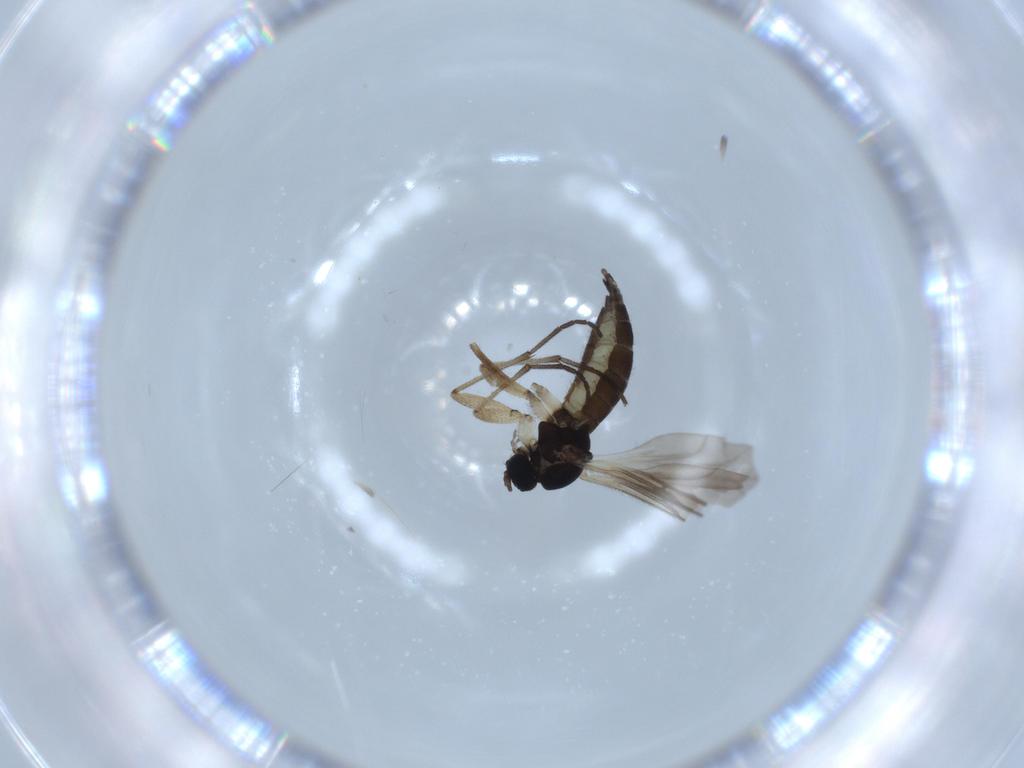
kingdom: Animalia
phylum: Arthropoda
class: Insecta
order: Diptera
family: Sciaridae
